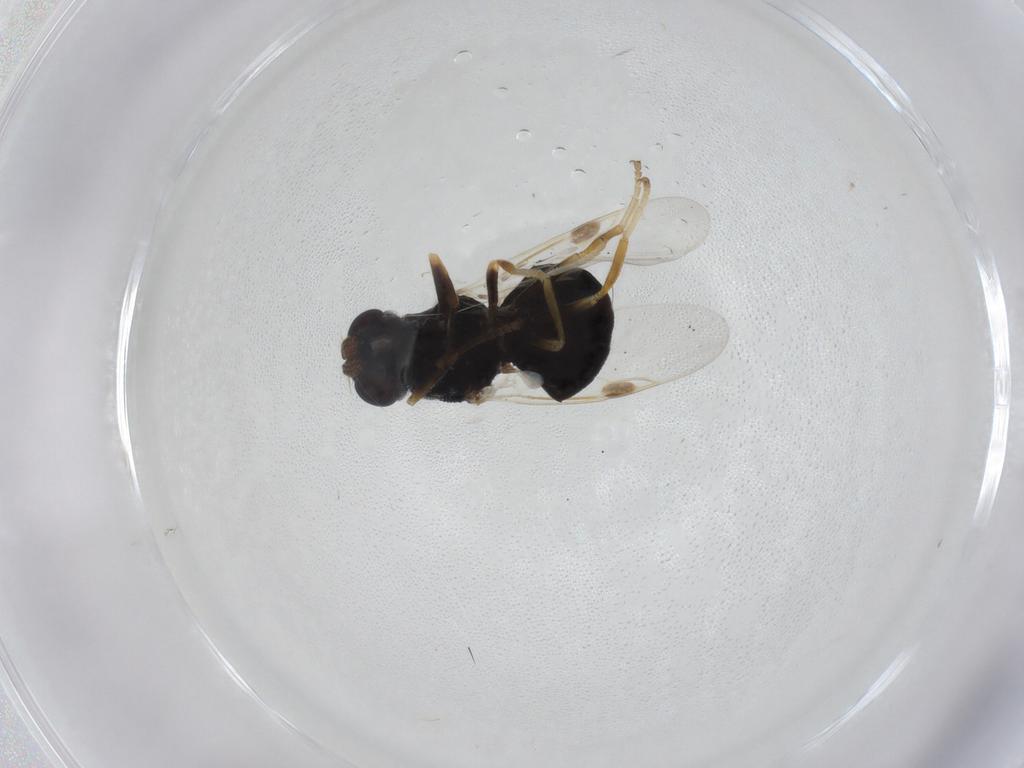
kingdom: Animalia
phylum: Arthropoda
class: Insecta
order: Diptera
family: Stratiomyidae
